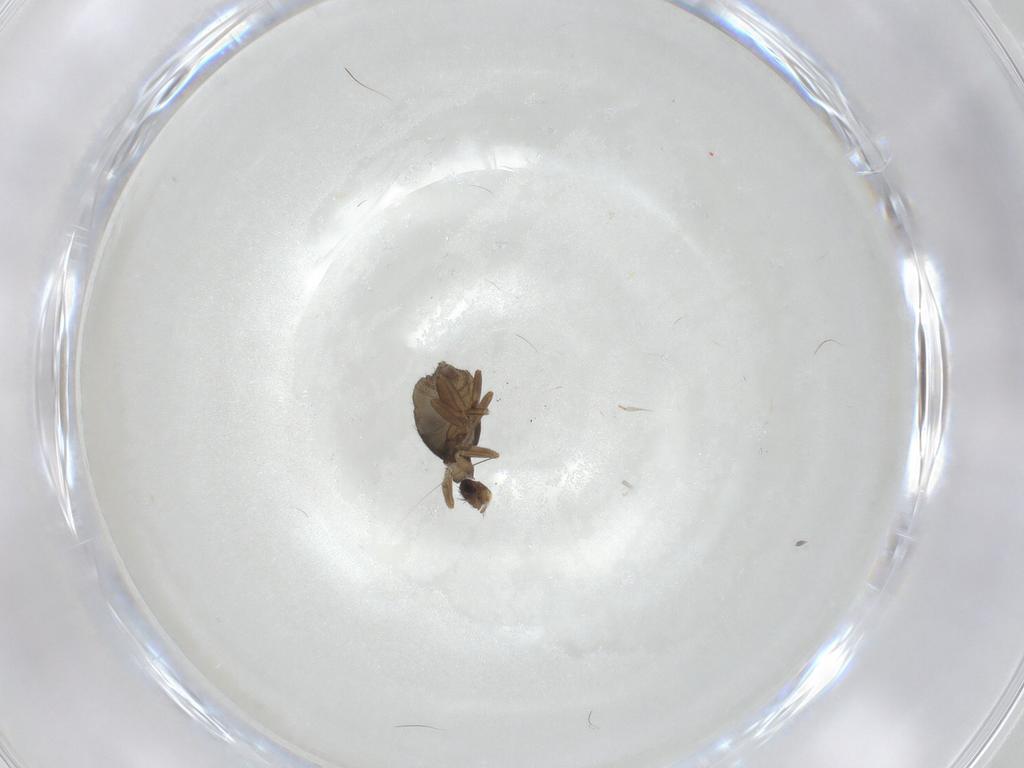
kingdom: Animalia
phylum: Arthropoda
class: Insecta
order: Diptera
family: Phoridae
